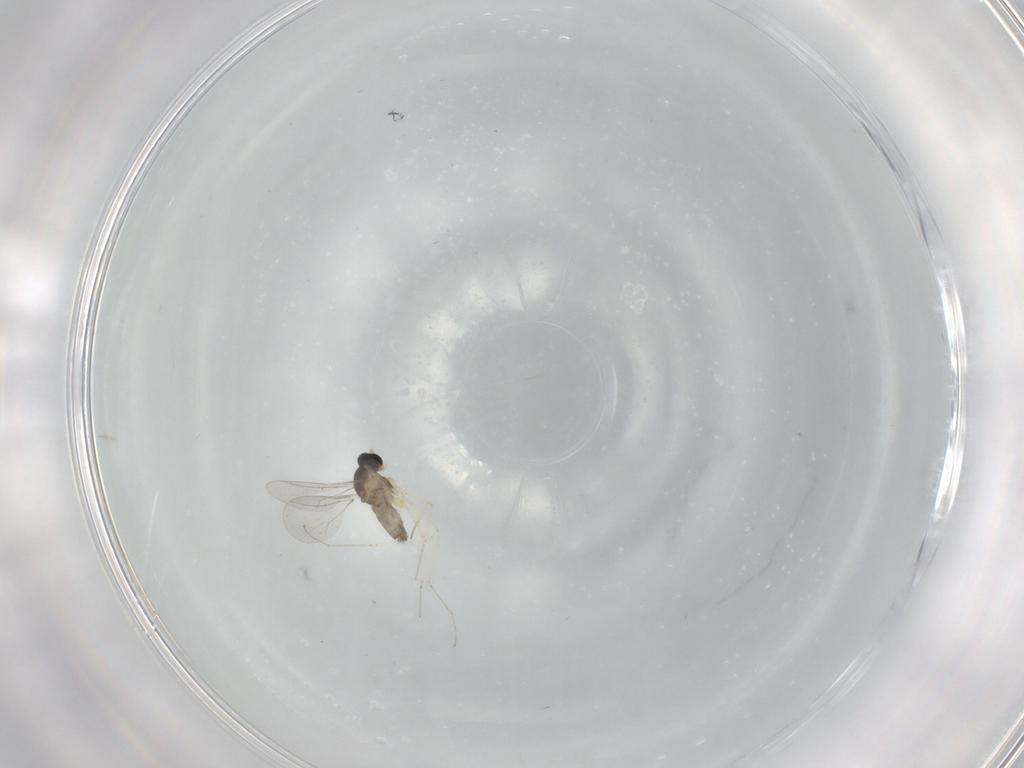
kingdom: Animalia
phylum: Arthropoda
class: Insecta
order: Diptera
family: Cecidomyiidae
